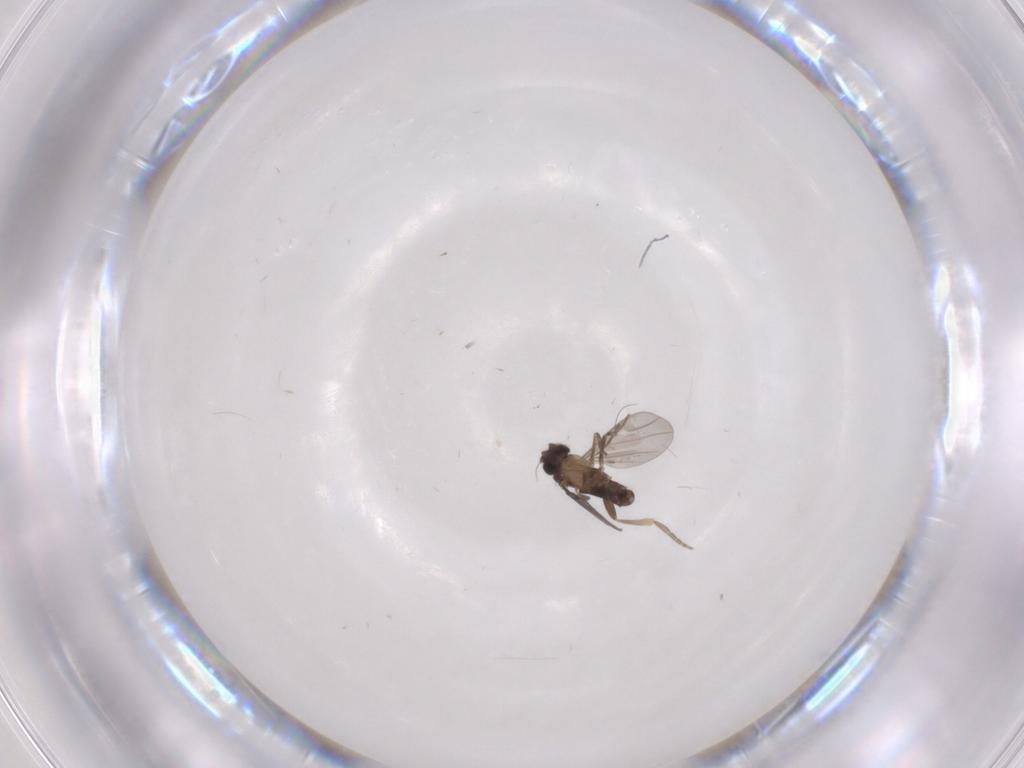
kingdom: Animalia
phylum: Arthropoda
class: Insecta
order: Diptera
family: Phoridae
